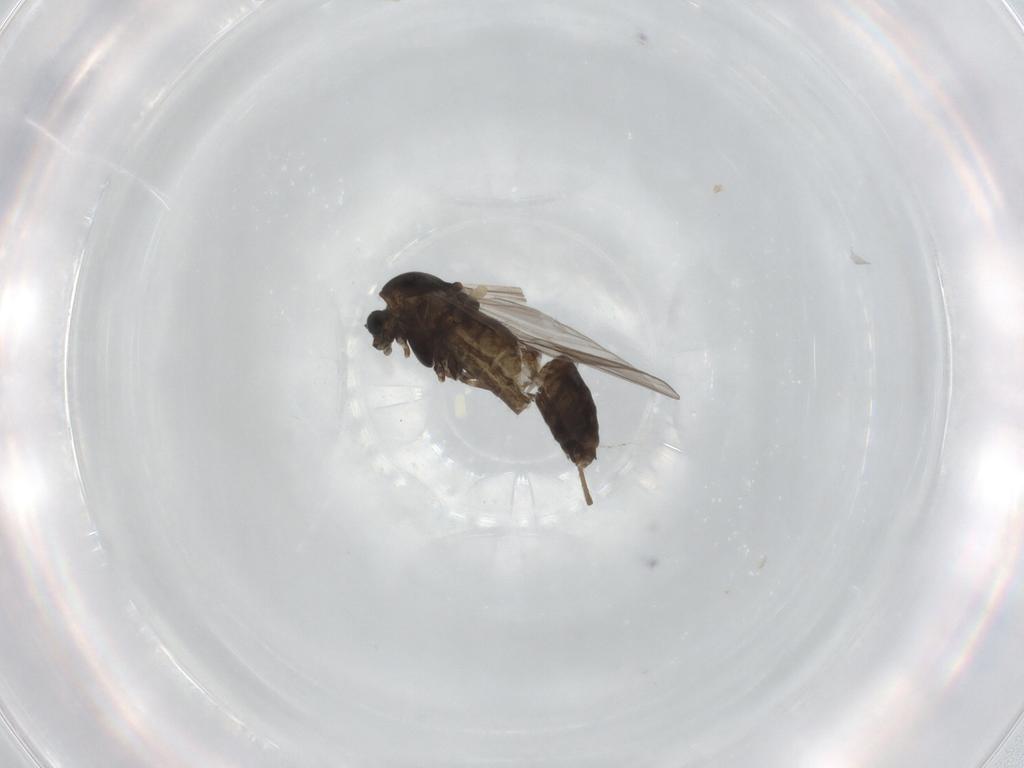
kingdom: Animalia
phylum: Arthropoda
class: Insecta
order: Diptera
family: Chironomidae
